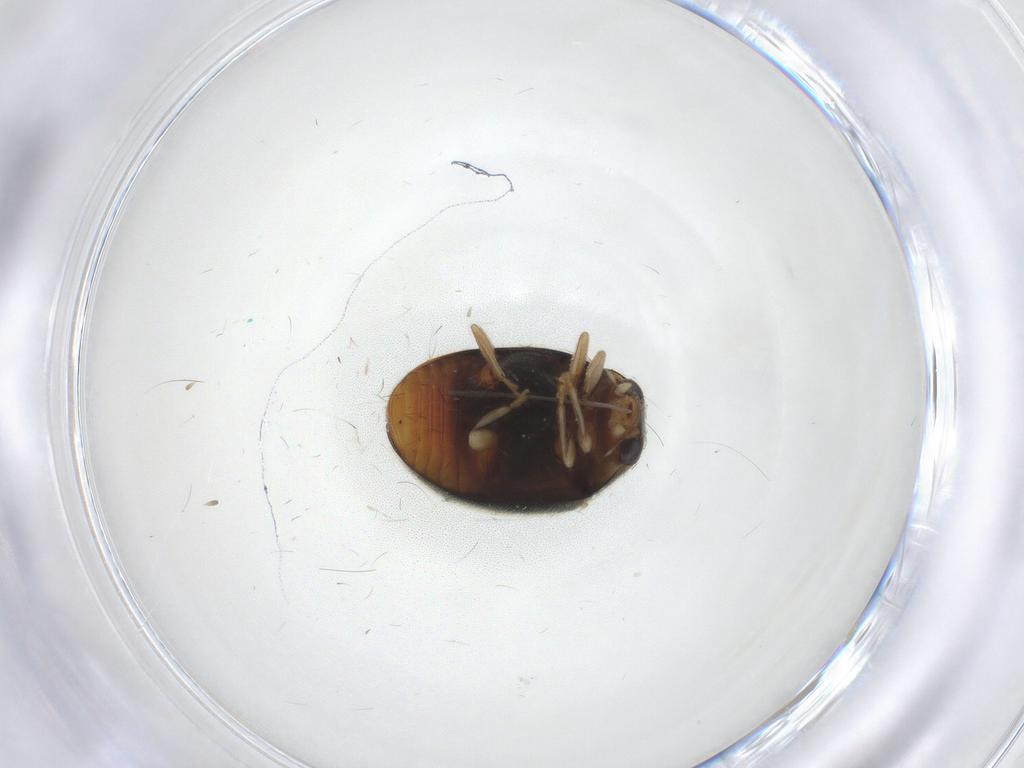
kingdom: Animalia
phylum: Arthropoda
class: Insecta
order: Coleoptera
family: Coccinellidae
